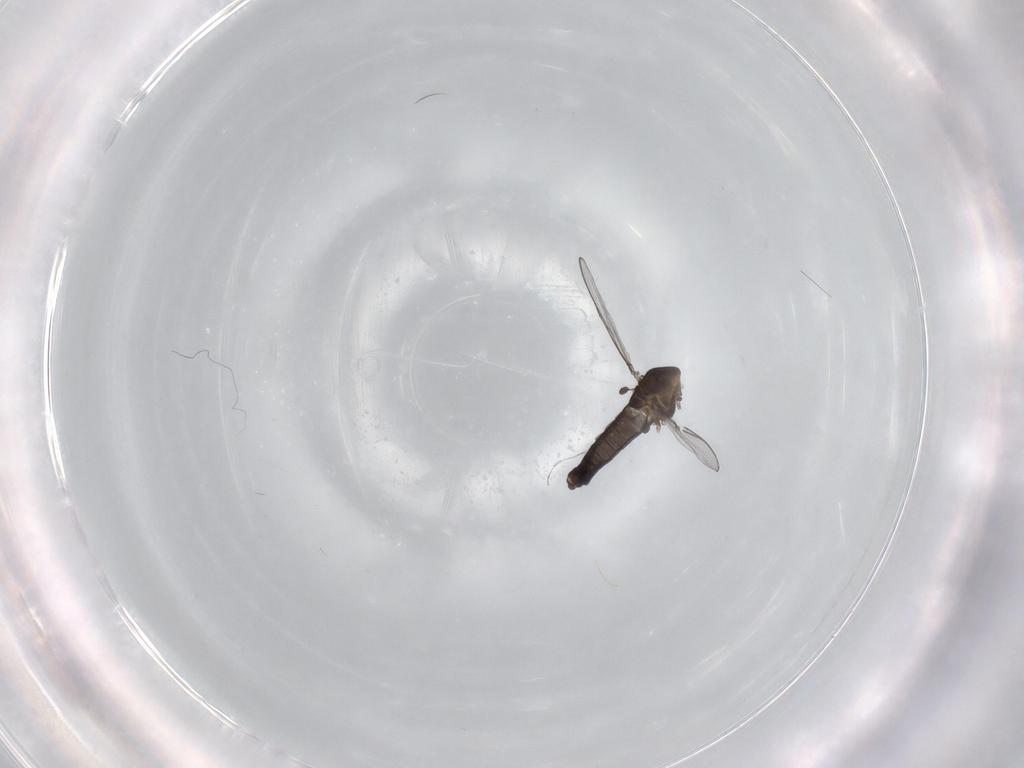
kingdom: Animalia
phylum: Arthropoda
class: Insecta
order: Diptera
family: Chironomidae
